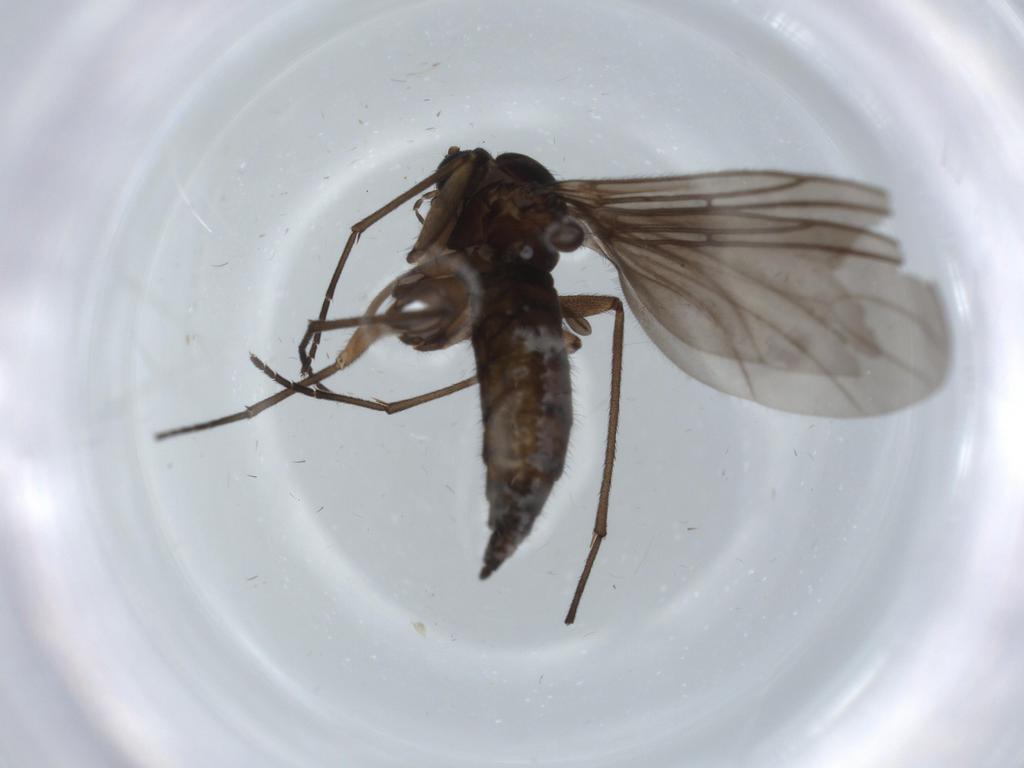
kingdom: Animalia
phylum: Arthropoda
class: Insecta
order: Diptera
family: Sciaridae
